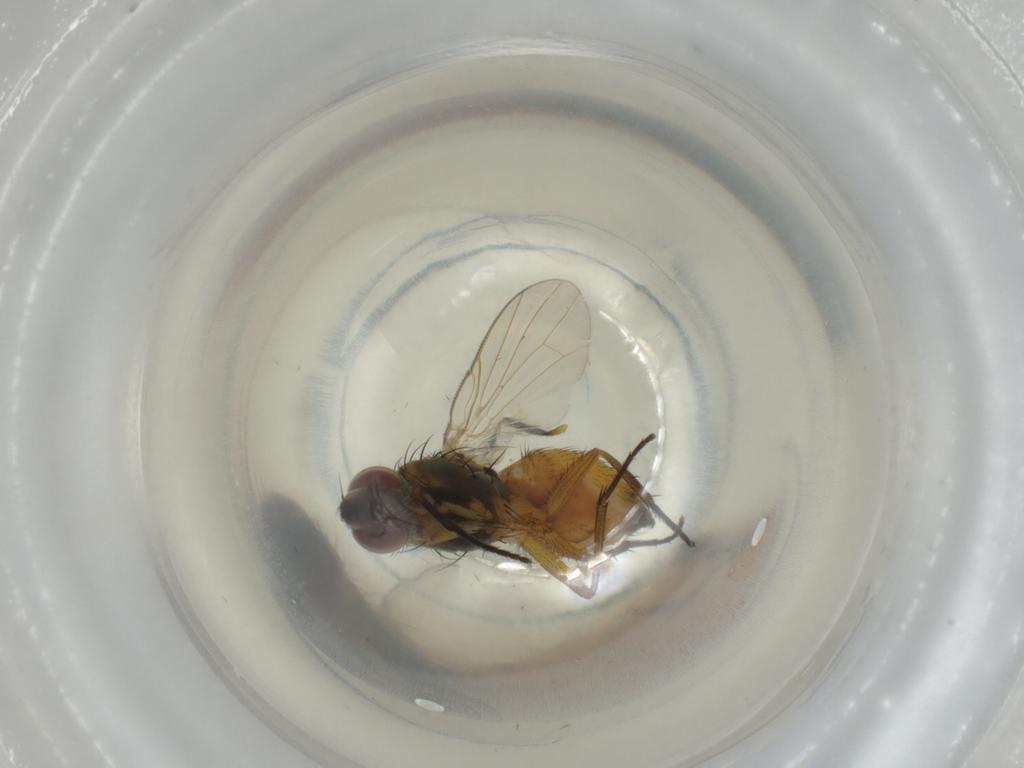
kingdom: Animalia
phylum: Arthropoda
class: Insecta
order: Diptera
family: Muscidae
